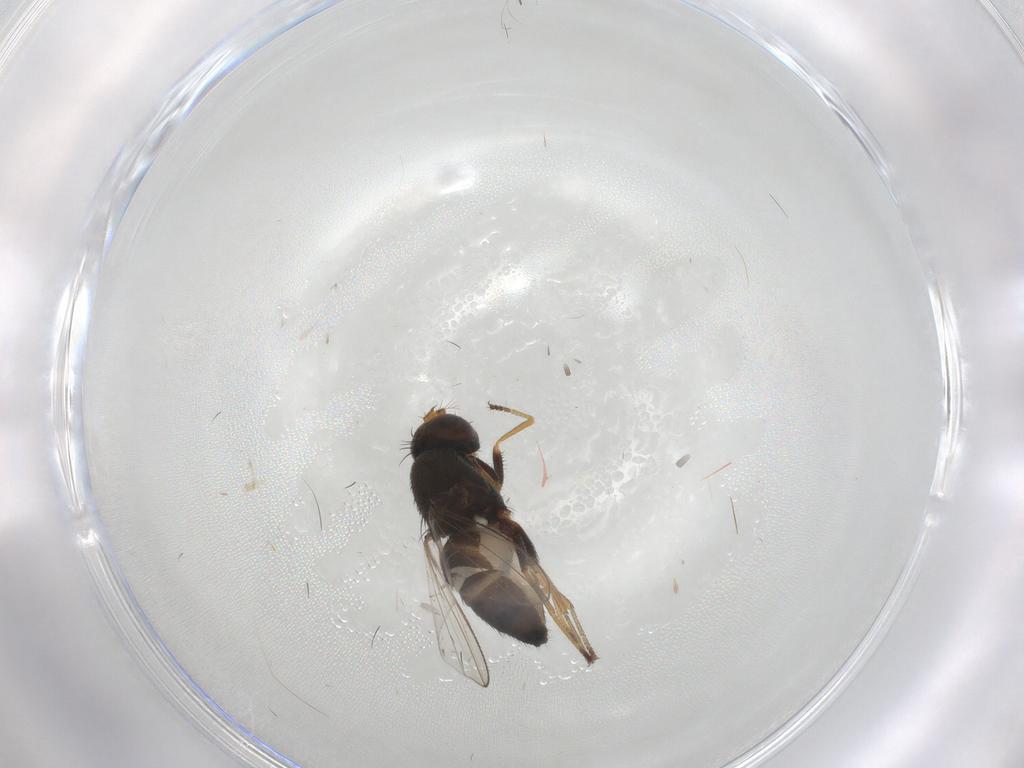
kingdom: Animalia
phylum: Arthropoda
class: Insecta
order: Diptera
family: Ephydridae
